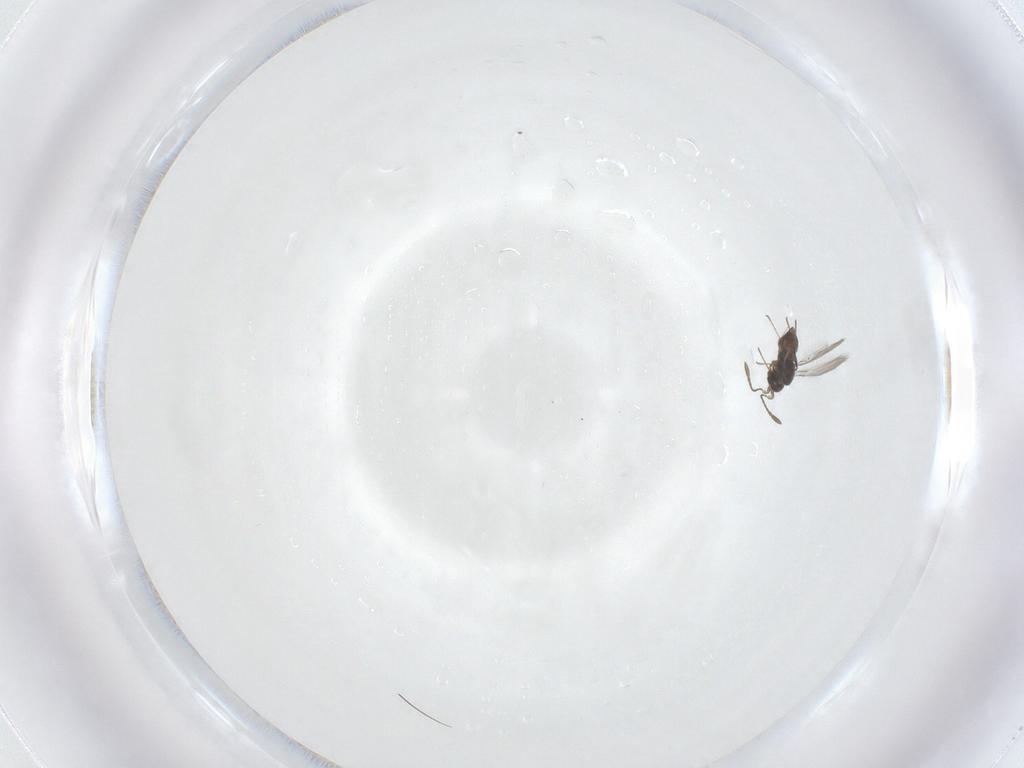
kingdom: Animalia
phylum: Arthropoda
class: Insecta
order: Hymenoptera
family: Mymaridae
